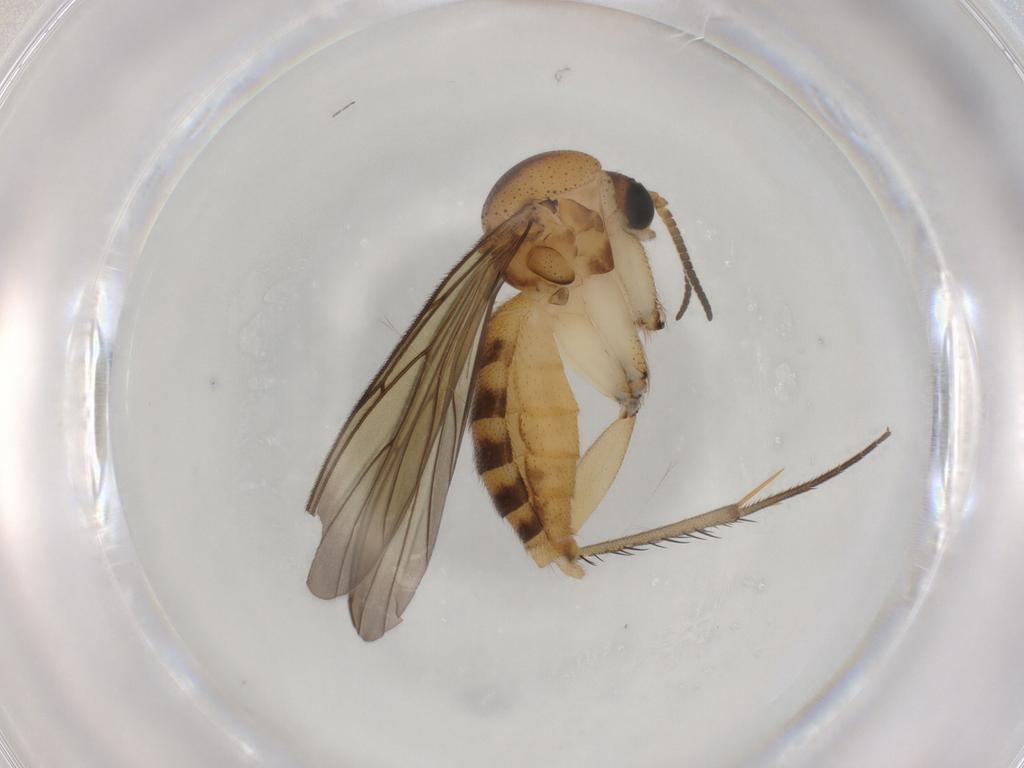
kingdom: Animalia
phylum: Arthropoda
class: Insecta
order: Diptera
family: Mycetophilidae
